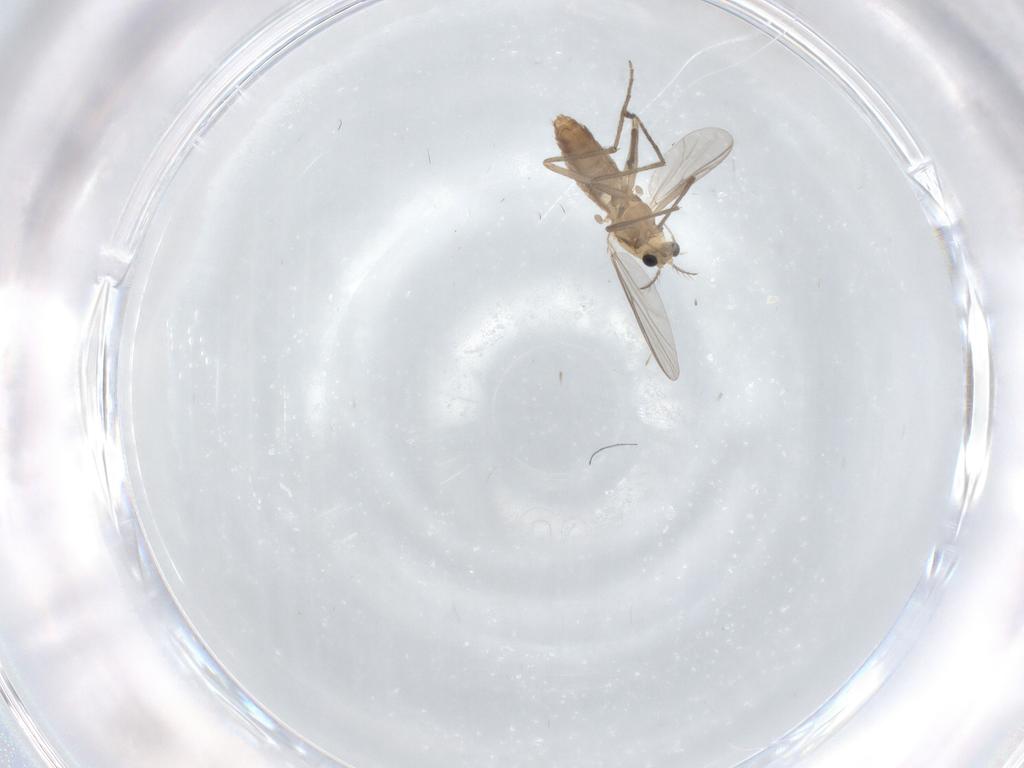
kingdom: Animalia
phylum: Arthropoda
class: Insecta
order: Diptera
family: Chironomidae
